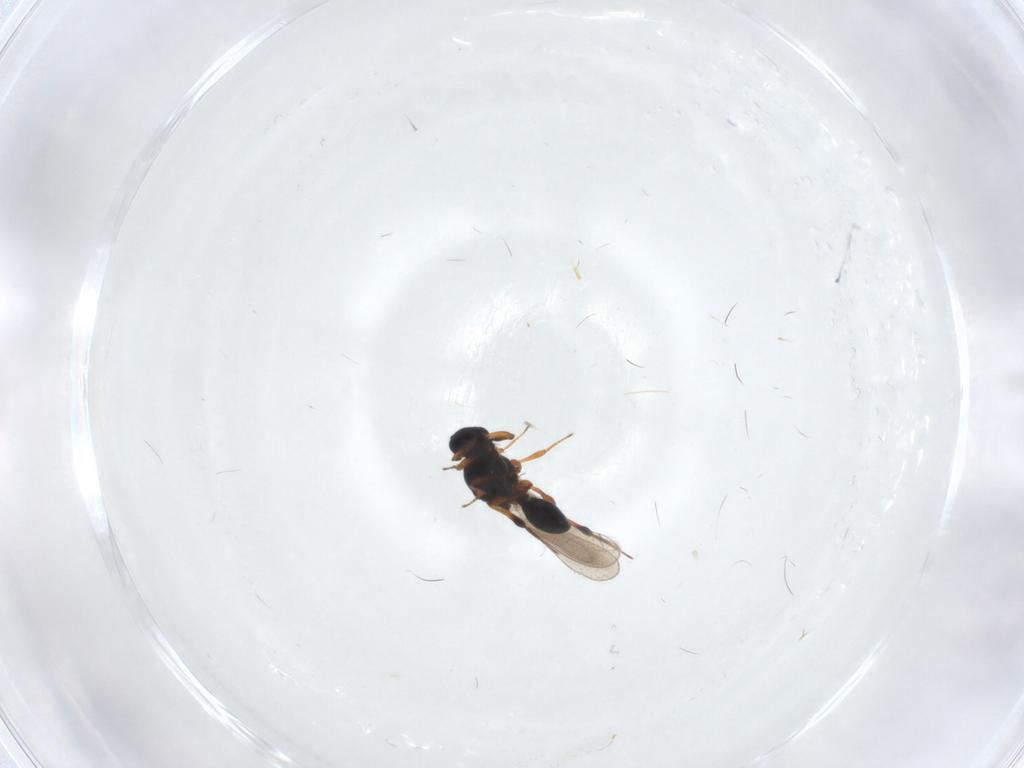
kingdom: Animalia
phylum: Arthropoda
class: Insecta
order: Hymenoptera
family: Platygastridae
